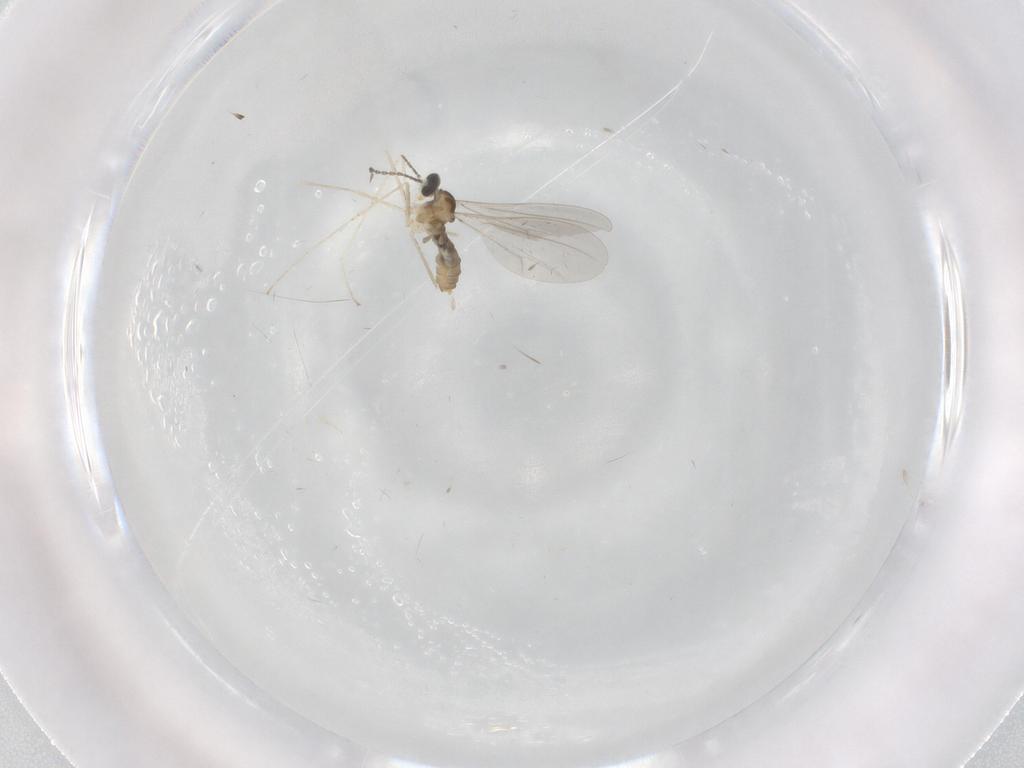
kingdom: Animalia
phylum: Arthropoda
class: Insecta
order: Diptera
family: Cecidomyiidae
